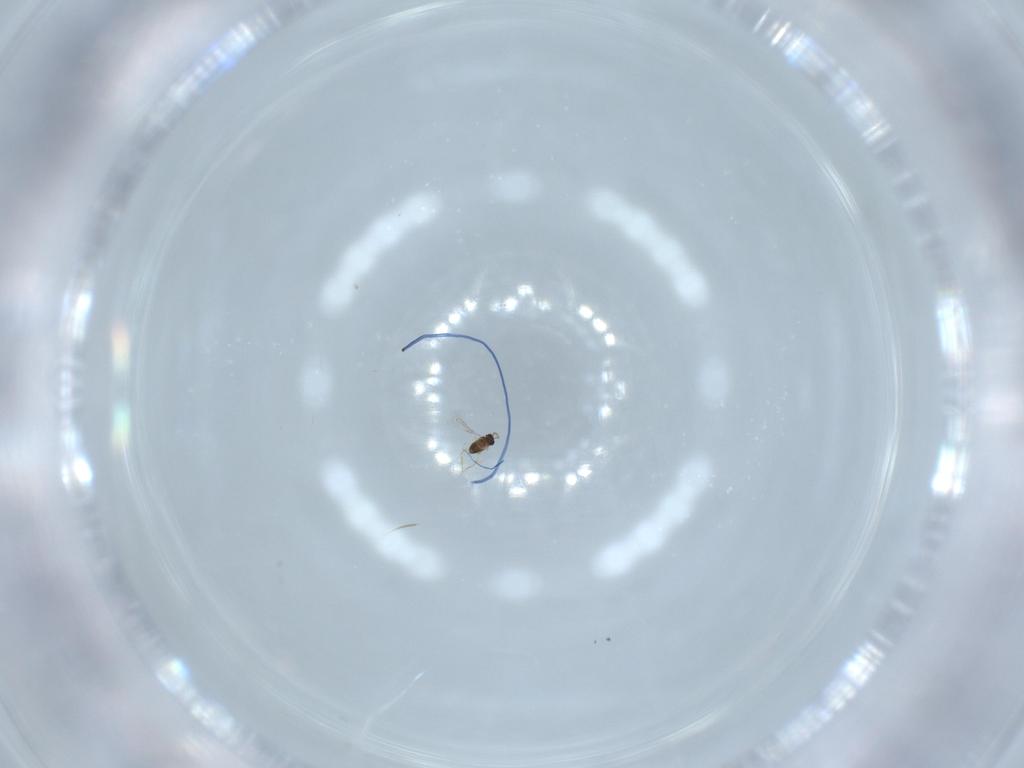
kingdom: Animalia
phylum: Arthropoda
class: Insecta
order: Hymenoptera
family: Mymaridae
